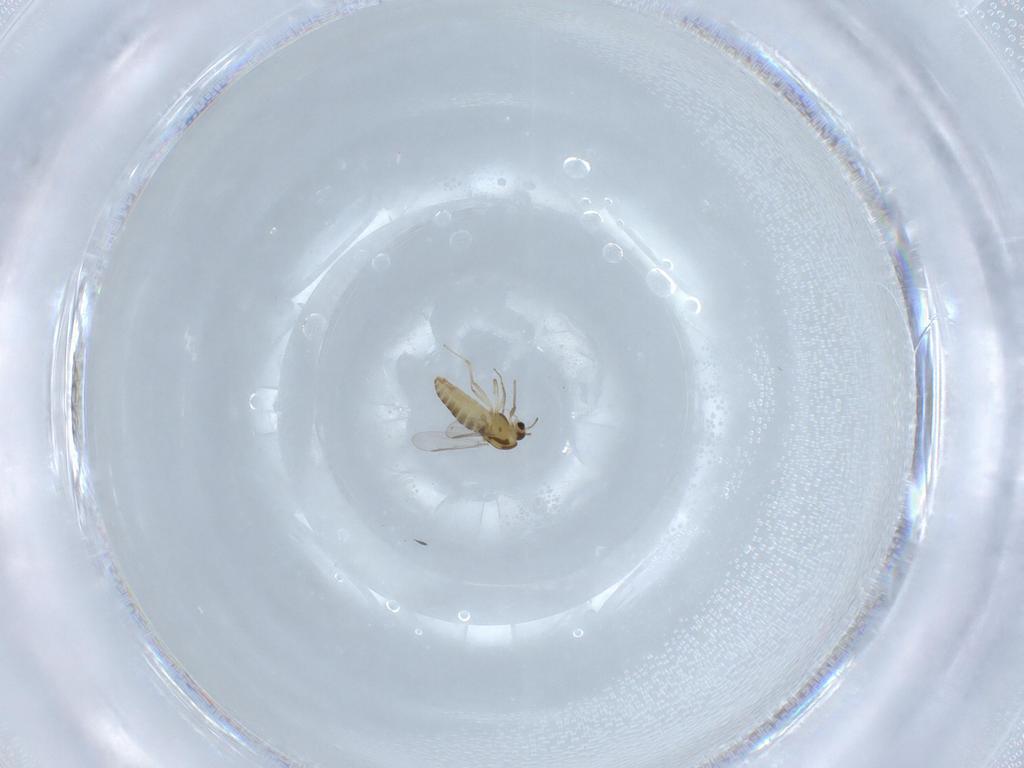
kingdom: Animalia
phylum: Arthropoda
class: Insecta
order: Diptera
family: Chironomidae
